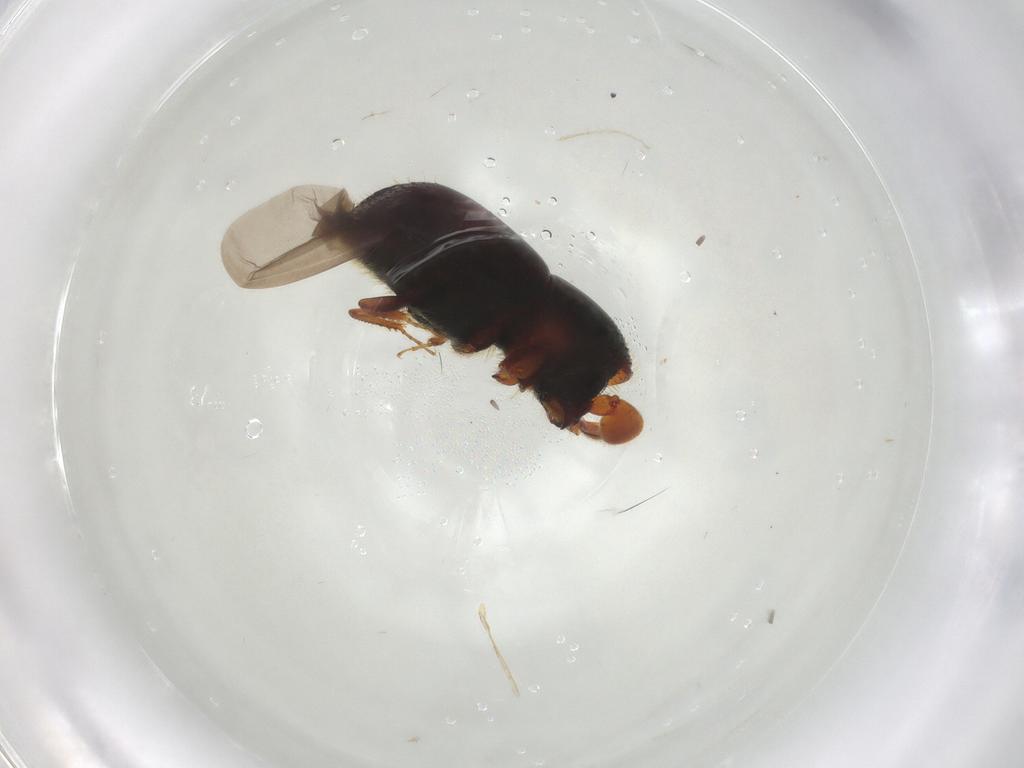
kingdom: Animalia
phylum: Arthropoda
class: Insecta
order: Coleoptera
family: Curculionidae
